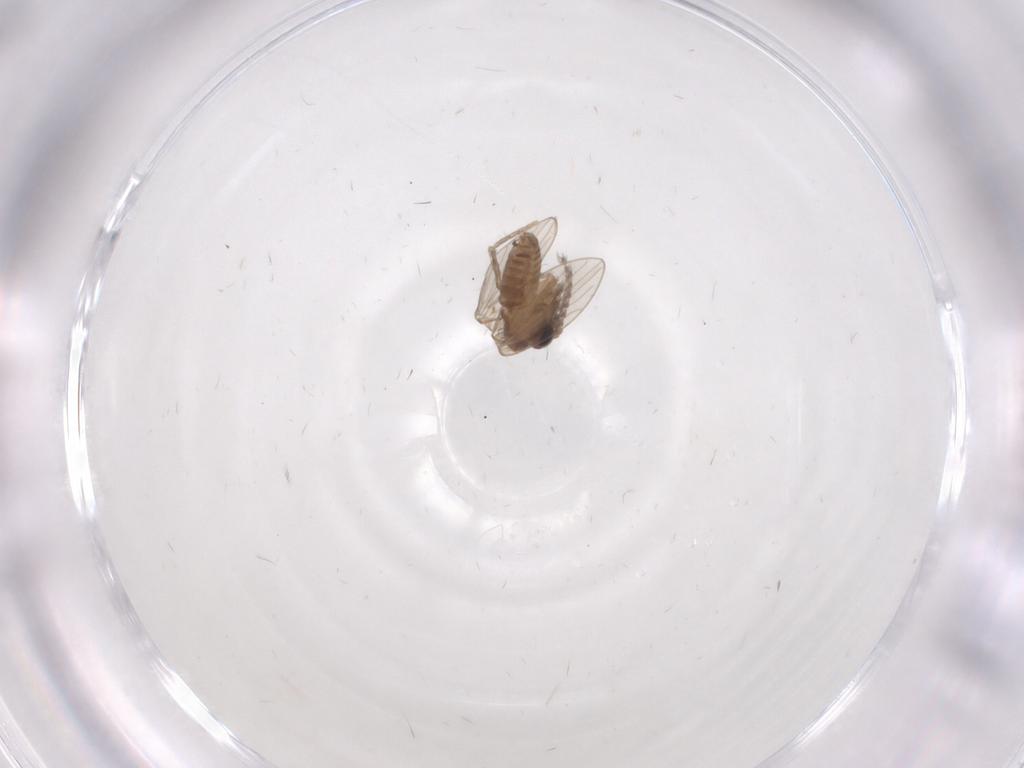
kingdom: Animalia
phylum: Arthropoda
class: Insecta
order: Diptera
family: Psychodidae
